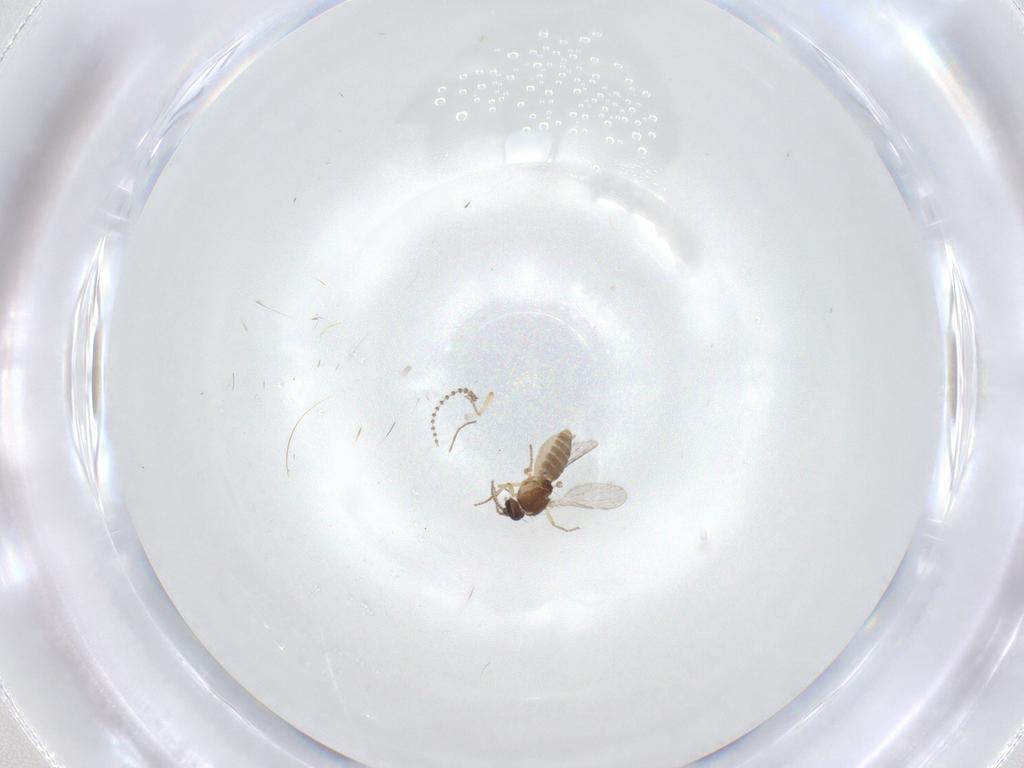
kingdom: Animalia
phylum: Arthropoda
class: Insecta
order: Diptera
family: Ceratopogonidae
